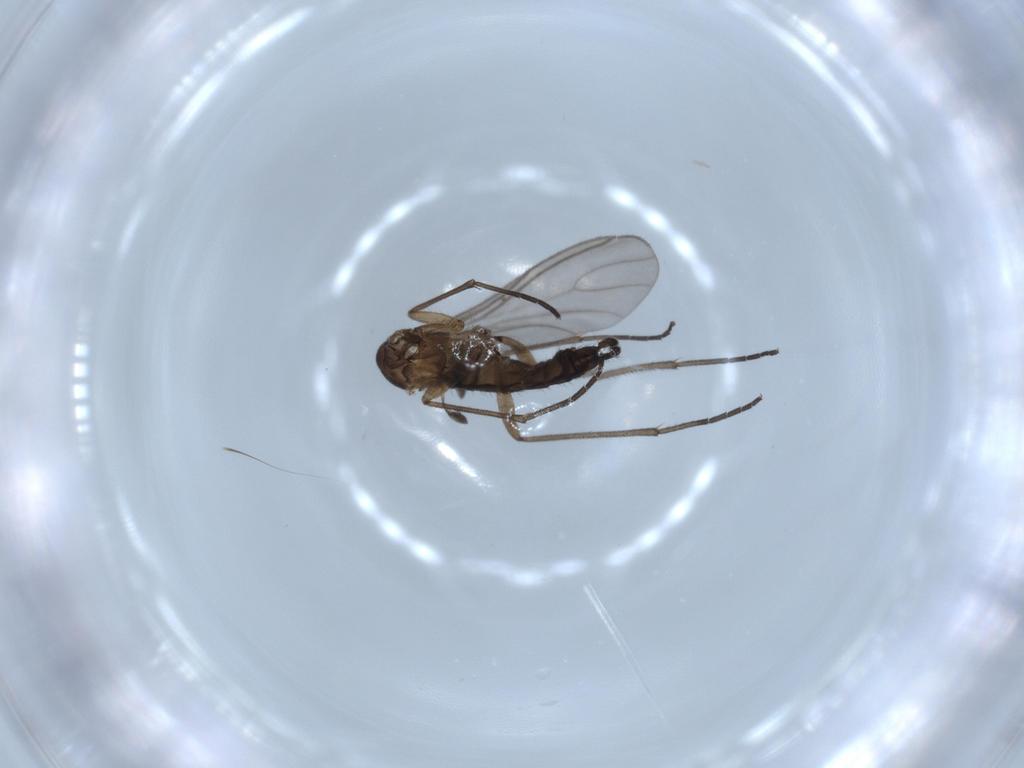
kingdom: Animalia
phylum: Arthropoda
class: Insecta
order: Diptera
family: Sciaridae
